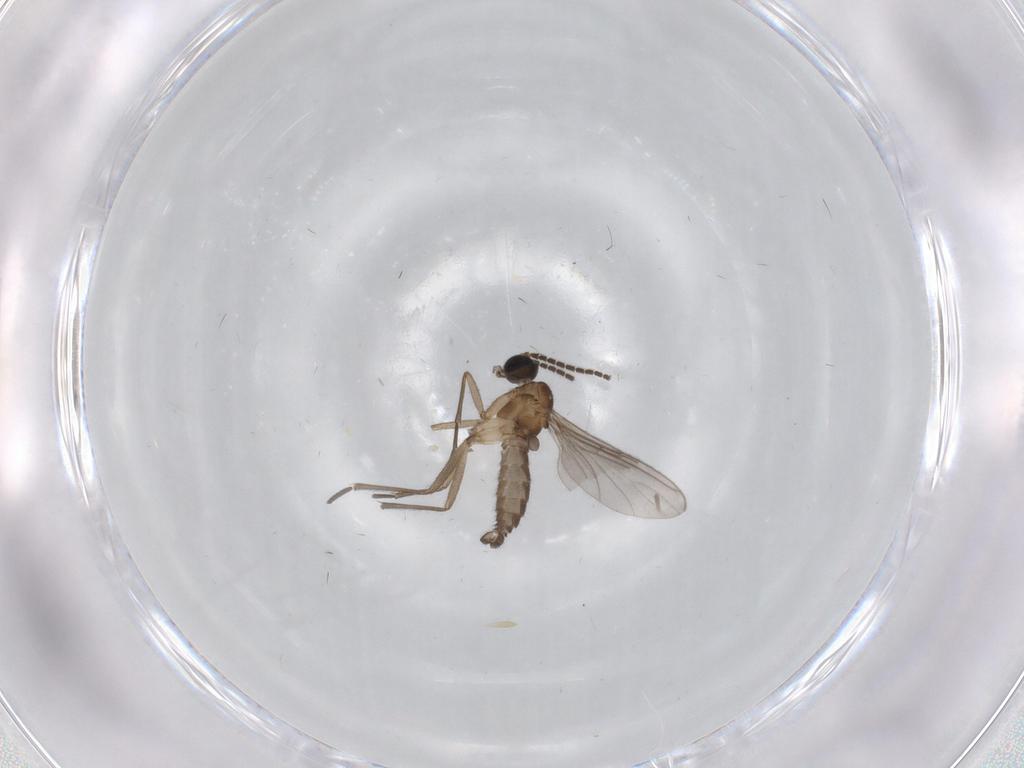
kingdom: Animalia
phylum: Arthropoda
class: Insecta
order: Diptera
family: Sciaridae
